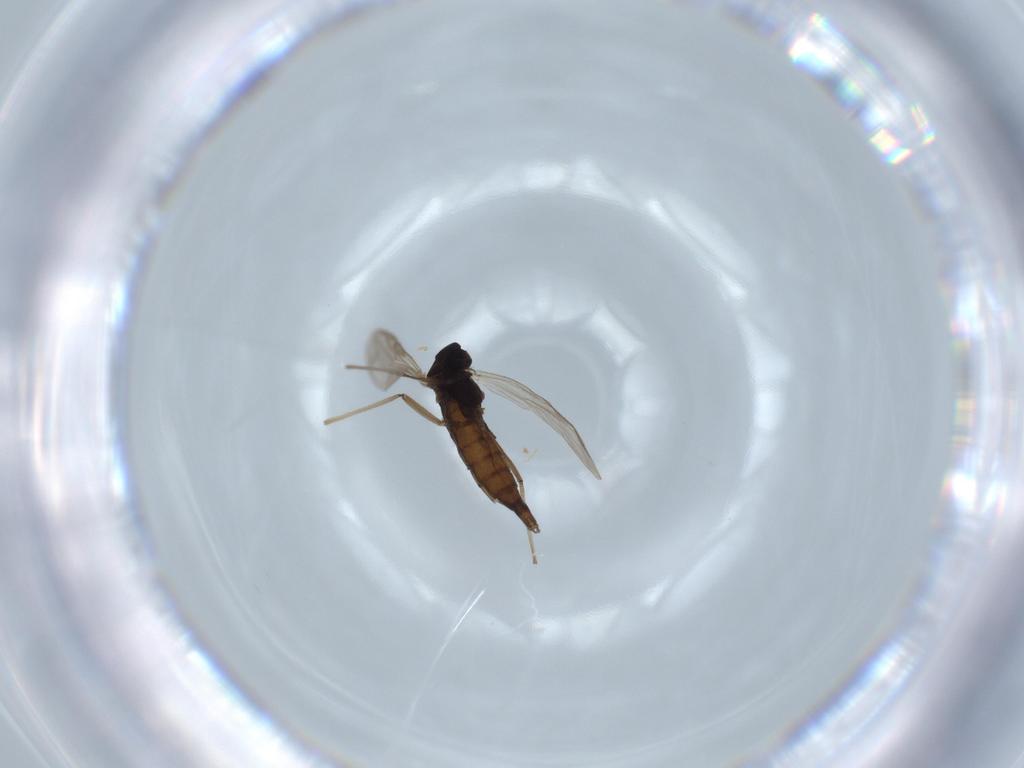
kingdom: Animalia
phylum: Arthropoda
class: Insecta
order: Diptera
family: Chironomidae
